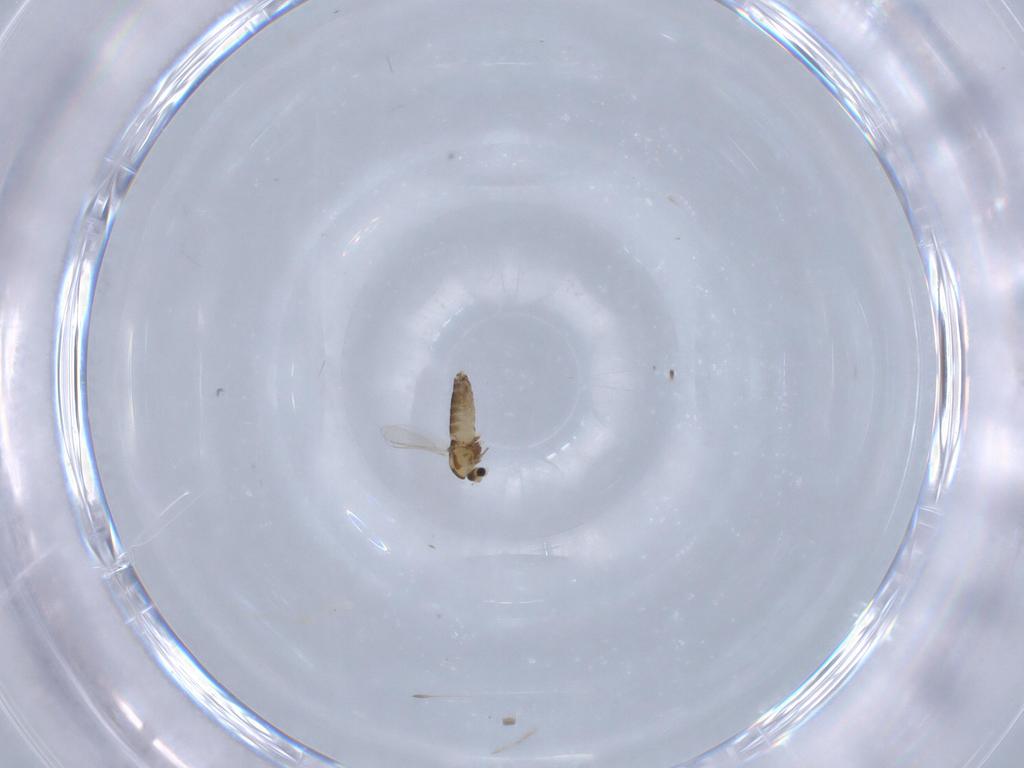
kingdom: Animalia
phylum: Arthropoda
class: Insecta
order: Diptera
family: Chironomidae
